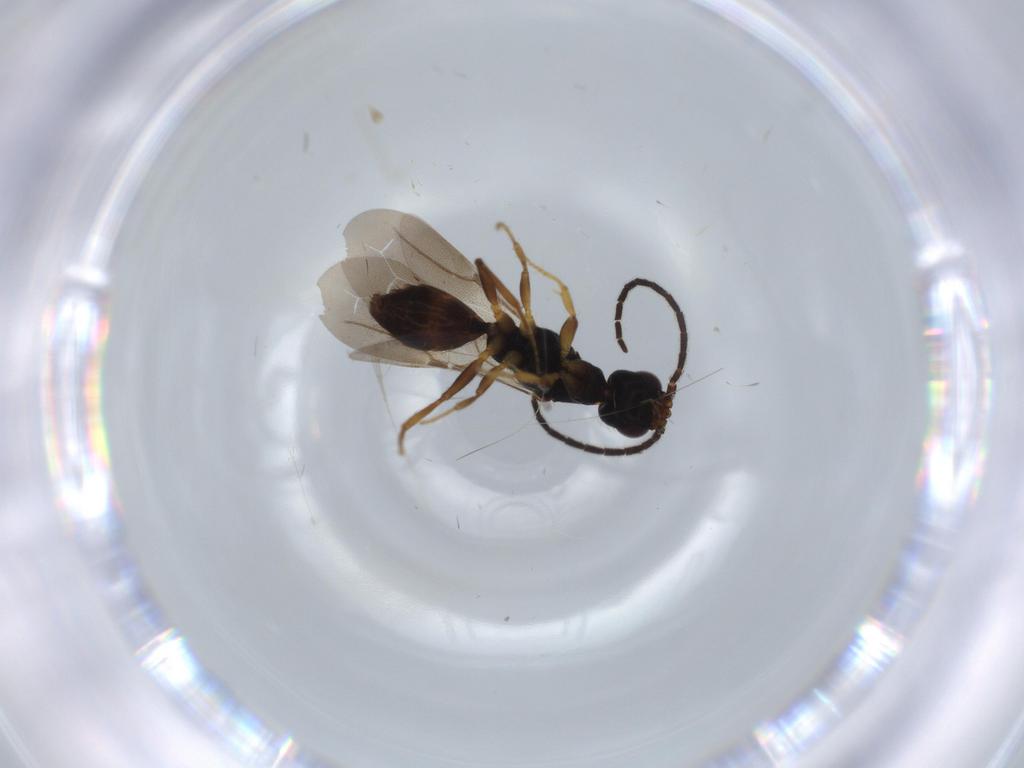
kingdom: Animalia
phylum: Arthropoda
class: Insecta
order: Hymenoptera
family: Bethylidae
